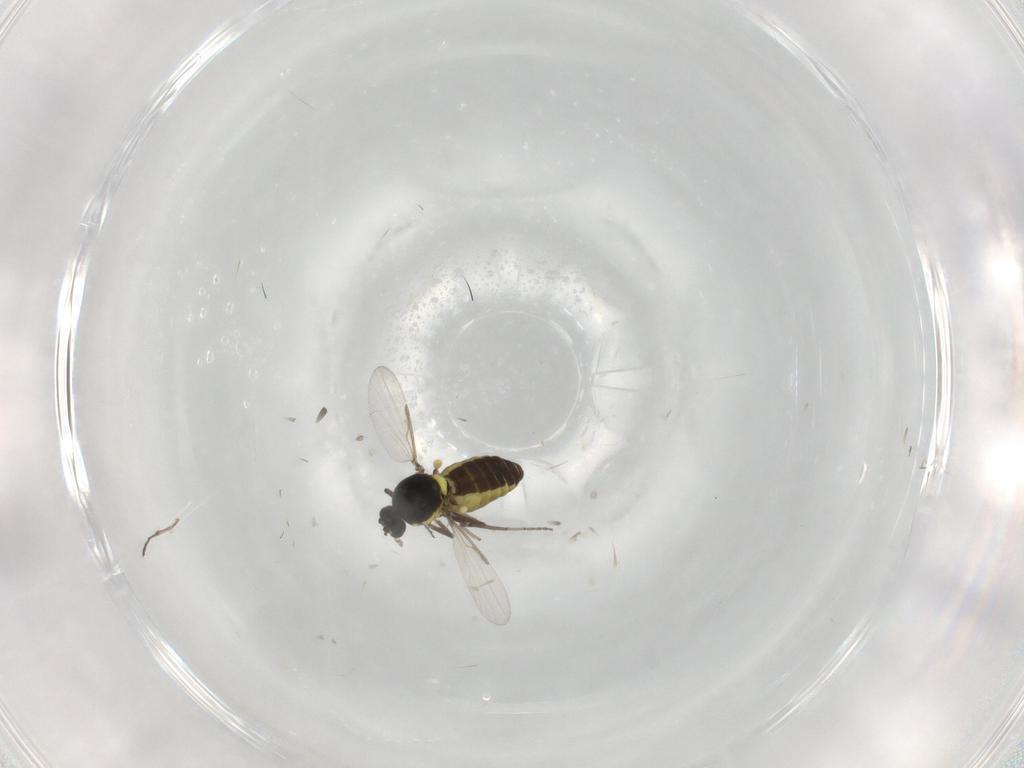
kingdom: Animalia
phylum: Arthropoda
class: Insecta
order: Diptera
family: Ceratopogonidae
